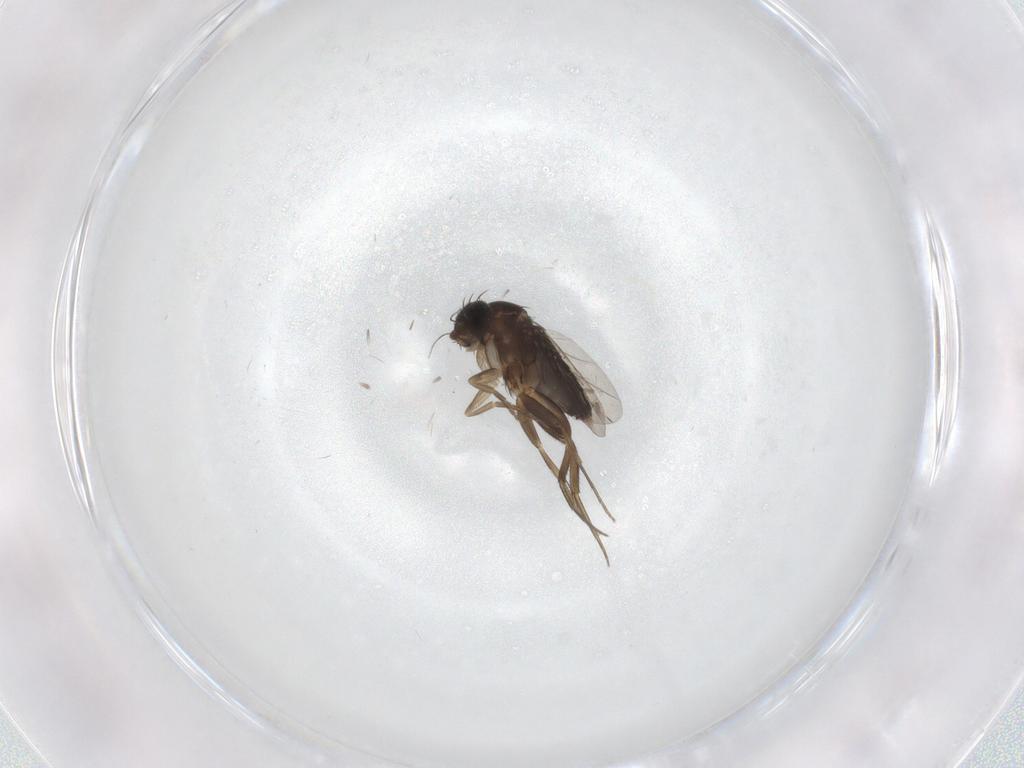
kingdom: Animalia
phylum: Arthropoda
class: Insecta
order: Diptera
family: Phoridae
